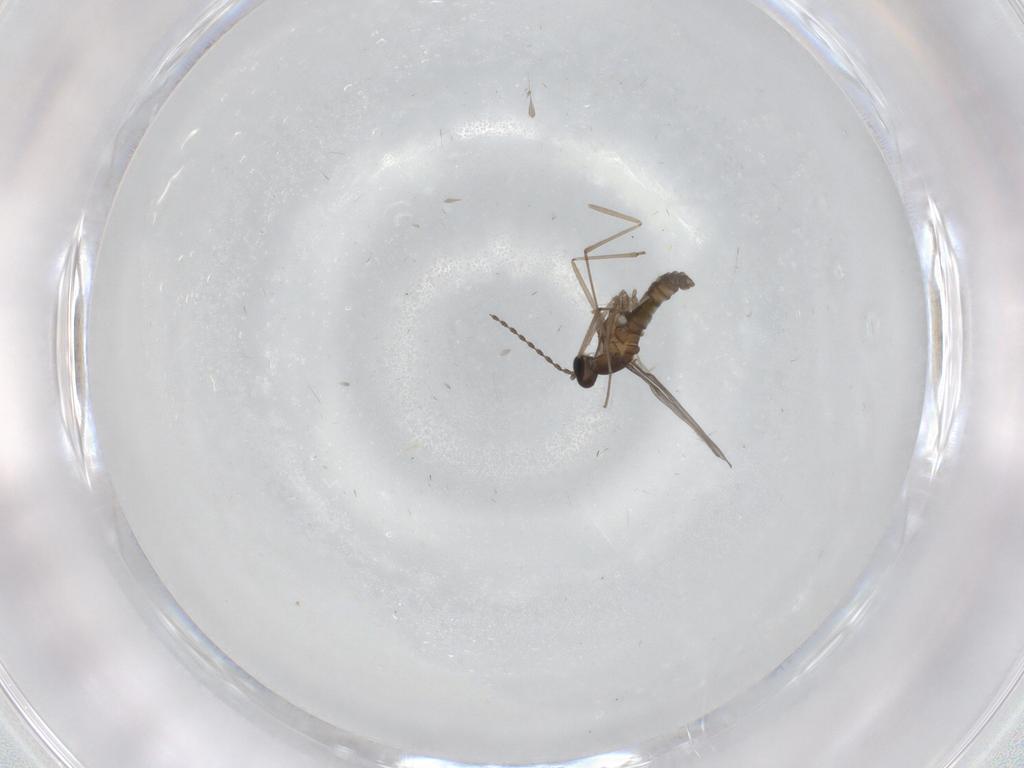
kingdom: Animalia
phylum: Arthropoda
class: Insecta
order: Diptera
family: Cecidomyiidae
